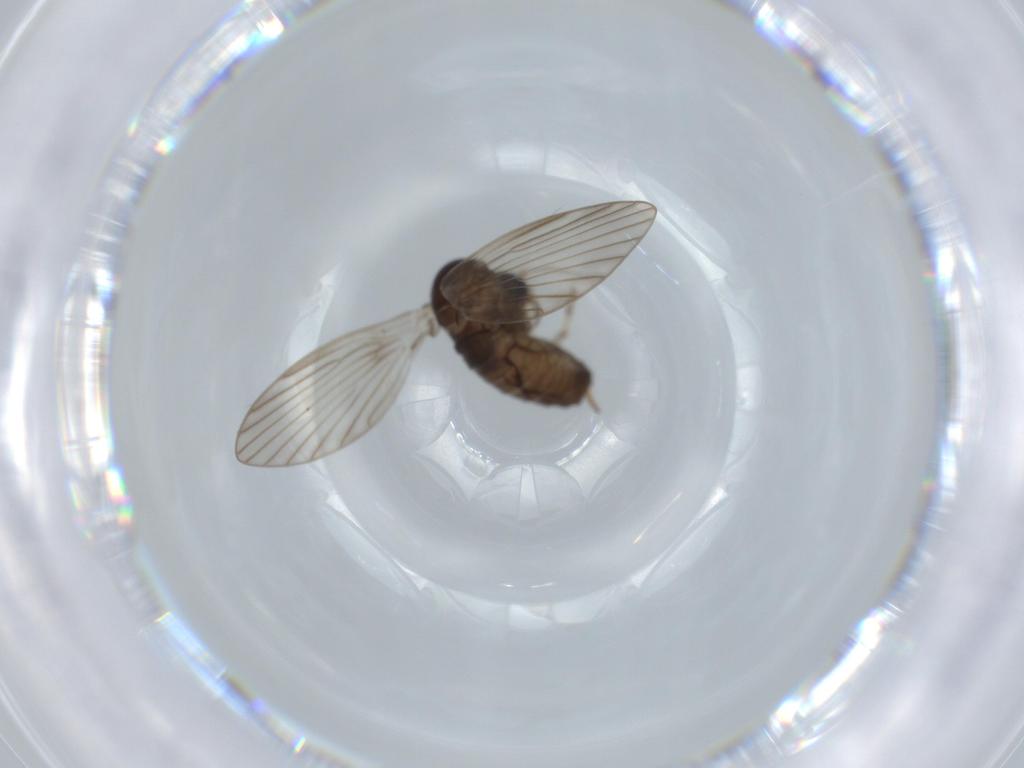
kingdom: Animalia
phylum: Arthropoda
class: Insecta
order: Diptera
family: Psychodidae
